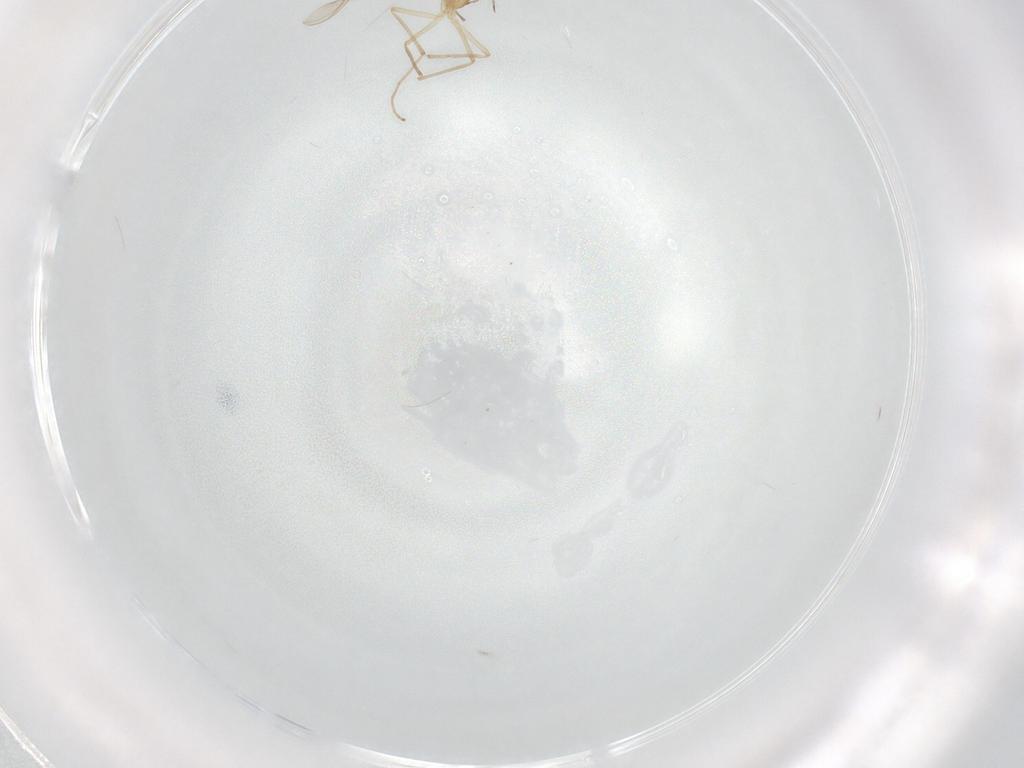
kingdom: Animalia
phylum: Arthropoda
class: Insecta
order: Diptera
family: Chironomidae
